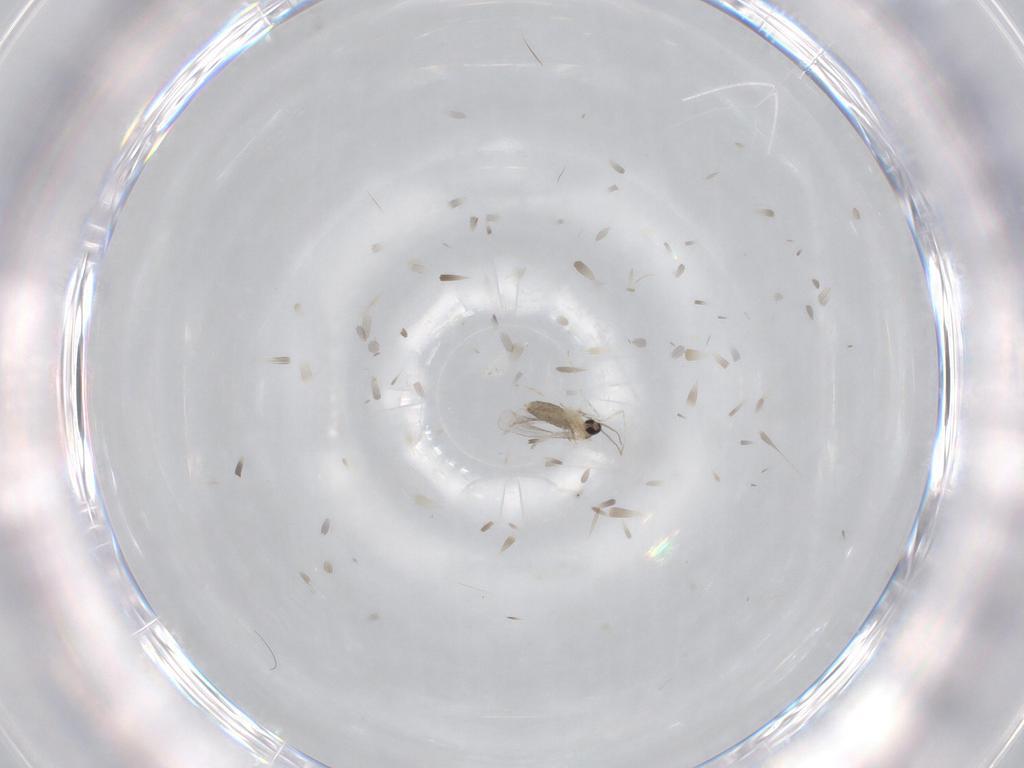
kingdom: Animalia
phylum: Arthropoda
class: Insecta
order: Diptera
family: Cecidomyiidae
